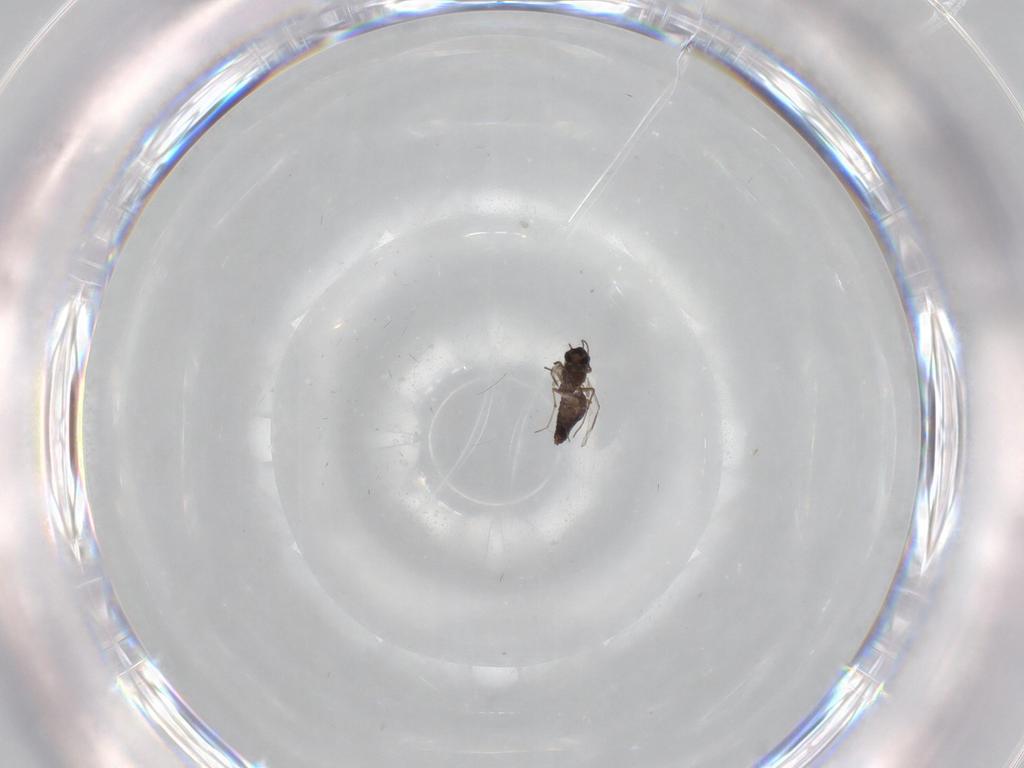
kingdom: Animalia
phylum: Arthropoda
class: Insecta
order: Diptera
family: Chironomidae
